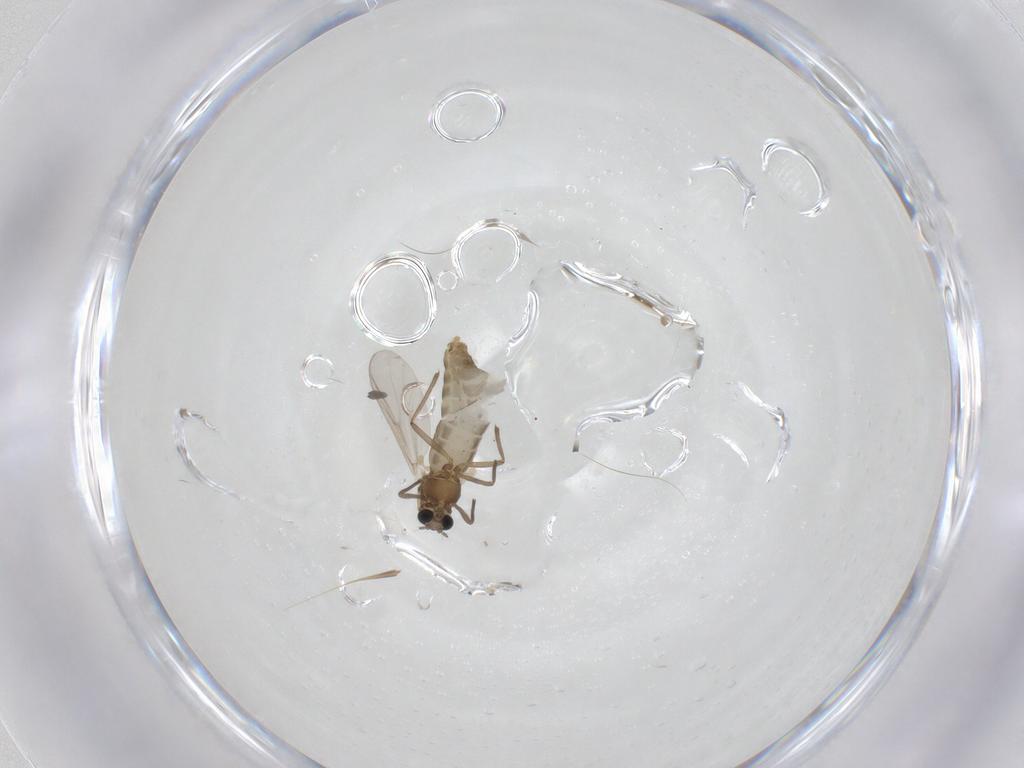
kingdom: Animalia
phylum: Arthropoda
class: Insecta
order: Diptera
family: Chironomidae
